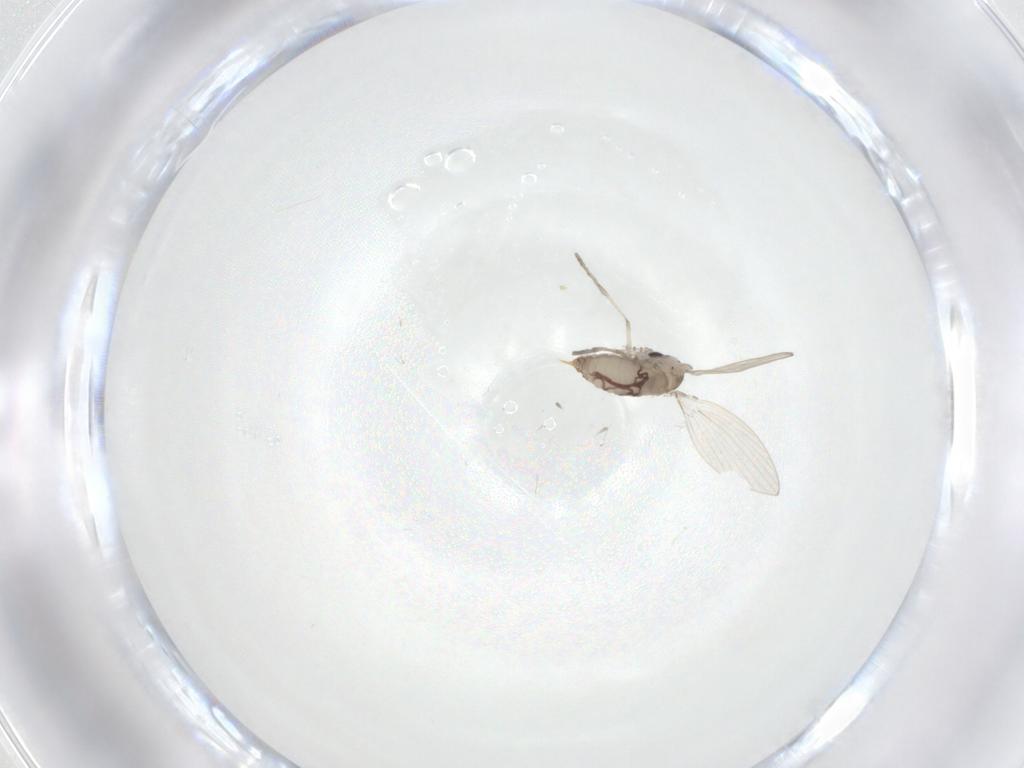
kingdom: Animalia
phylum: Arthropoda
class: Insecta
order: Diptera
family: Psychodidae
